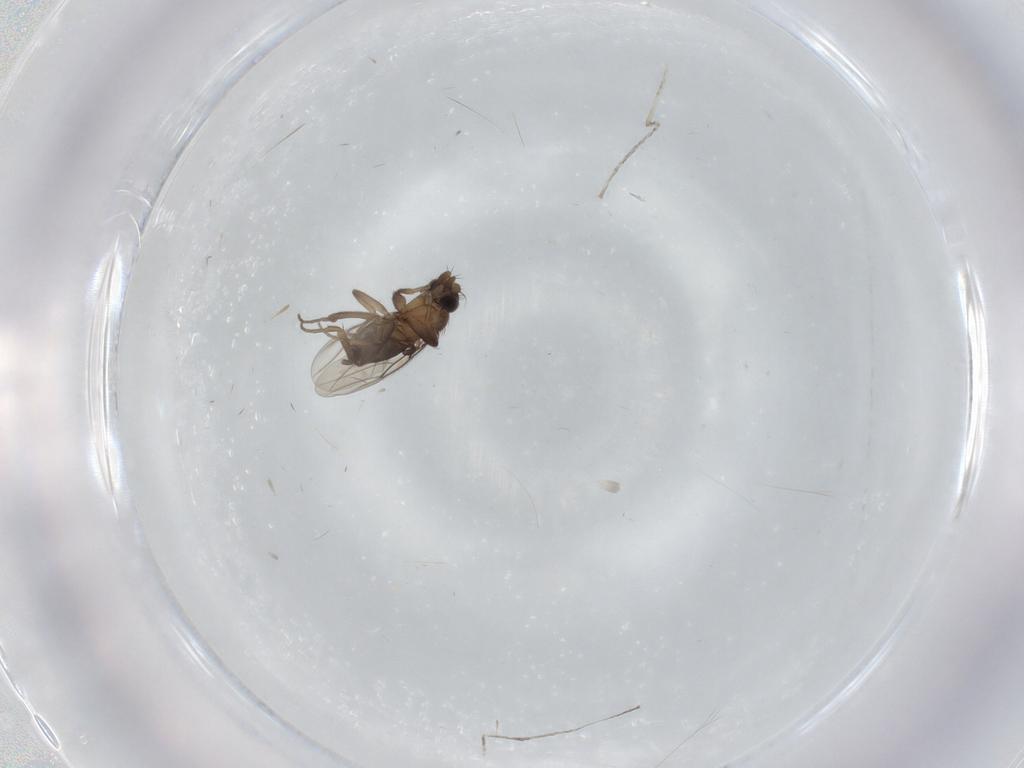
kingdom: Animalia
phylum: Arthropoda
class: Insecta
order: Diptera
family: Cecidomyiidae
